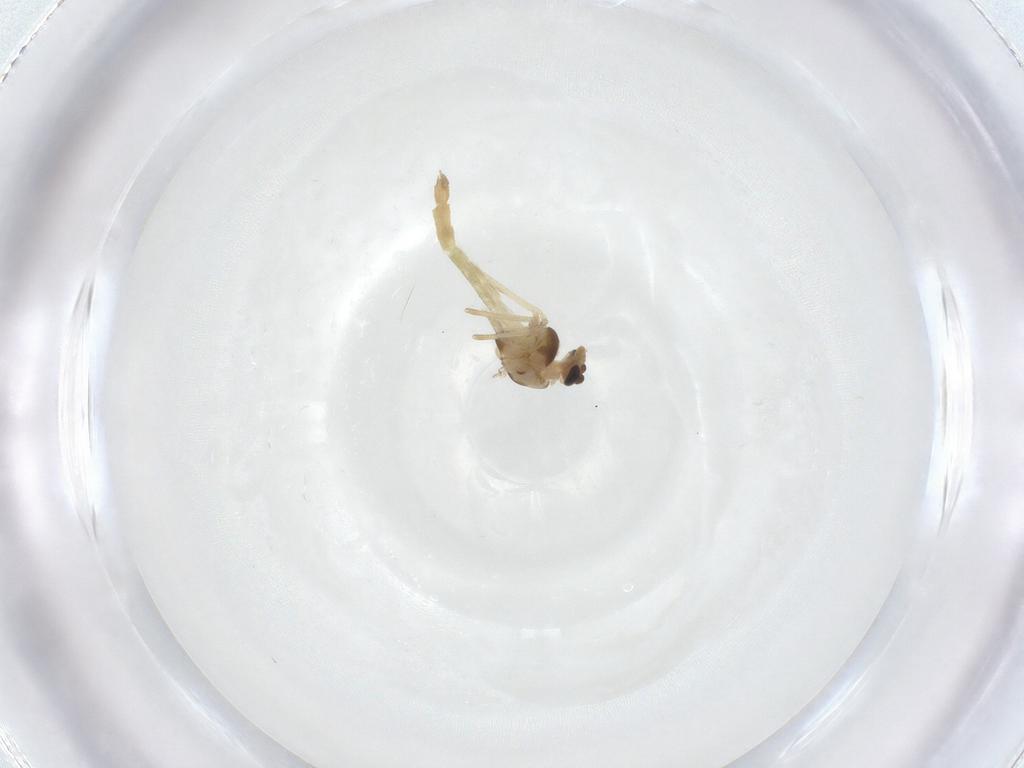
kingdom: Animalia
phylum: Arthropoda
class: Insecta
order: Diptera
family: Chironomidae
